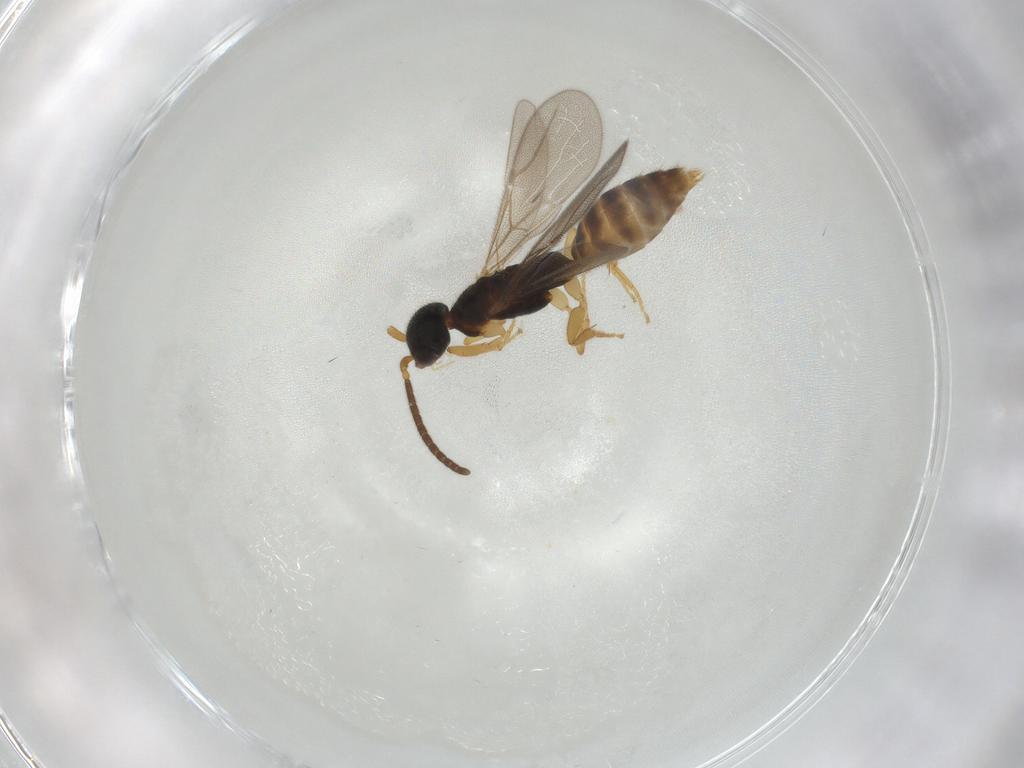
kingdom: Animalia
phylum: Arthropoda
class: Insecta
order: Hymenoptera
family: Bethylidae
